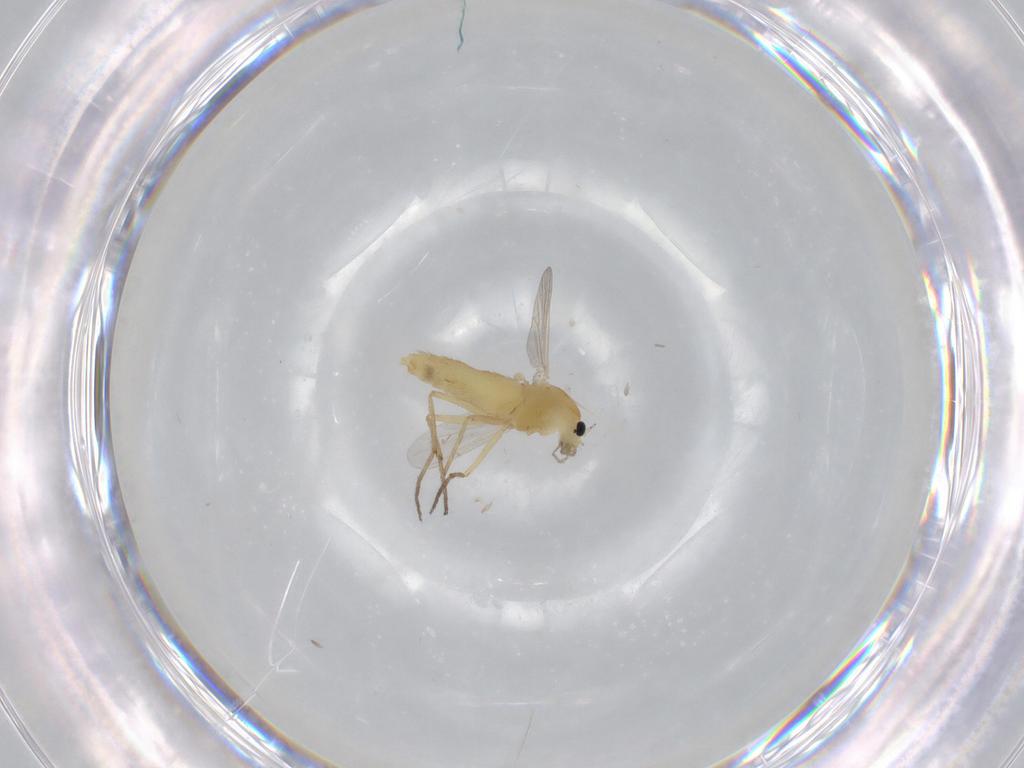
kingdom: Animalia
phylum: Arthropoda
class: Insecta
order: Diptera
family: Chironomidae
